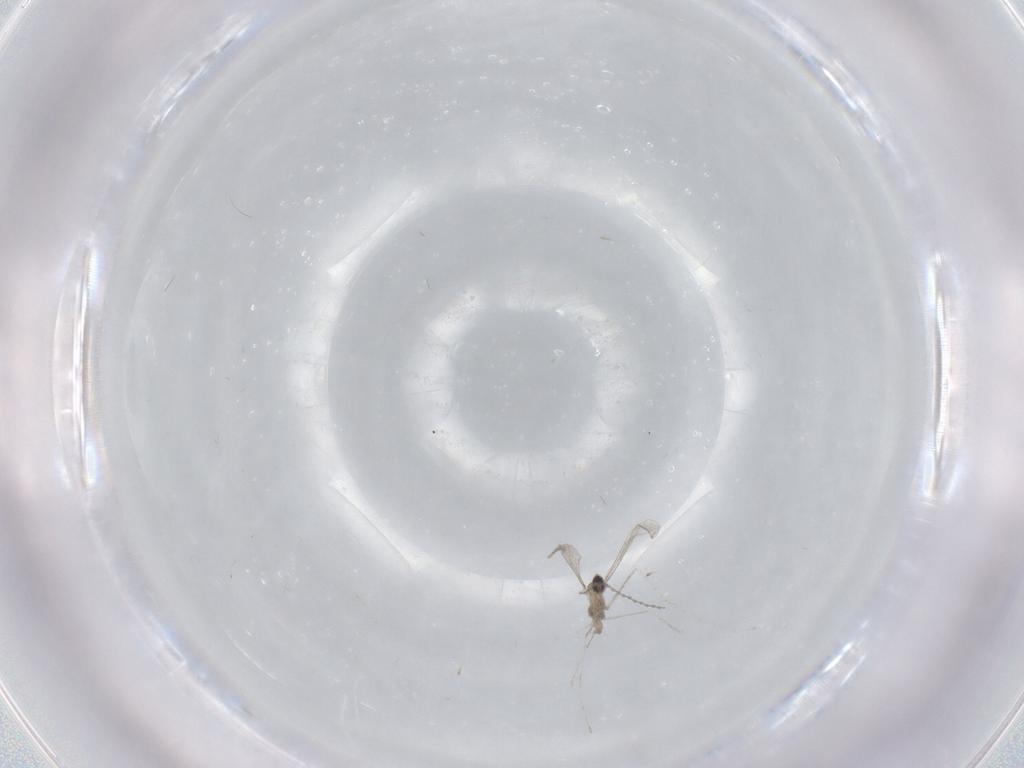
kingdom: Animalia
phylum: Arthropoda
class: Insecta
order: Diptera
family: Cecidomyiidae
